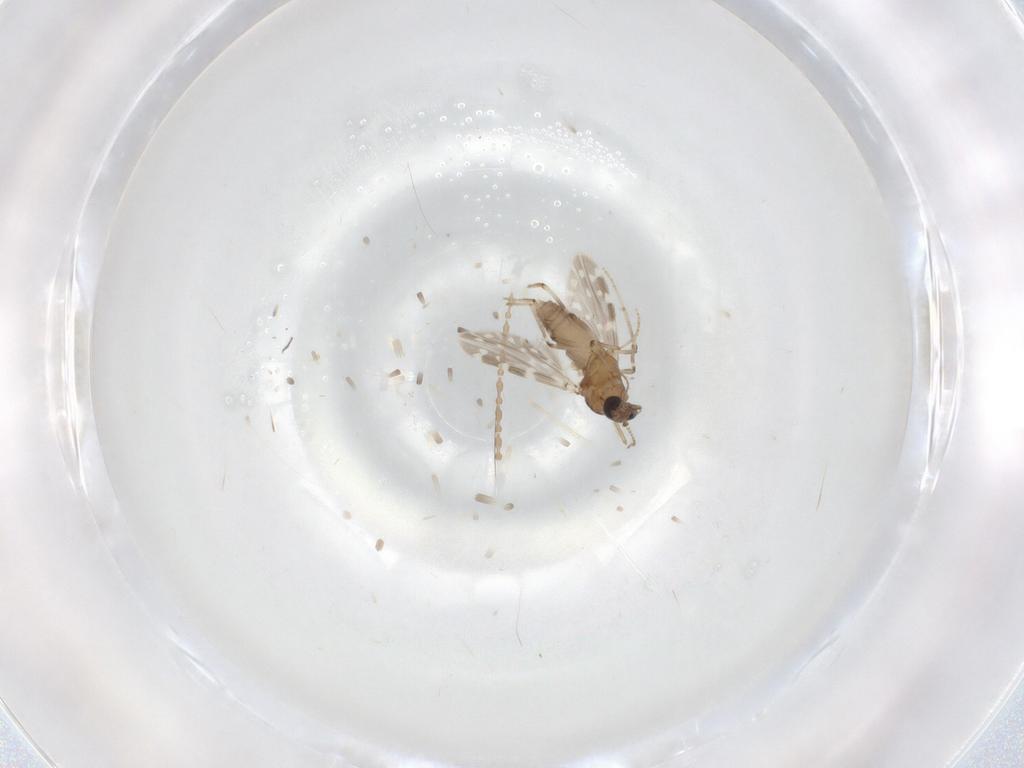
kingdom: Animalia
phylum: Arthropoda
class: Insecta
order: Diptera
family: Ceratopogonidae
